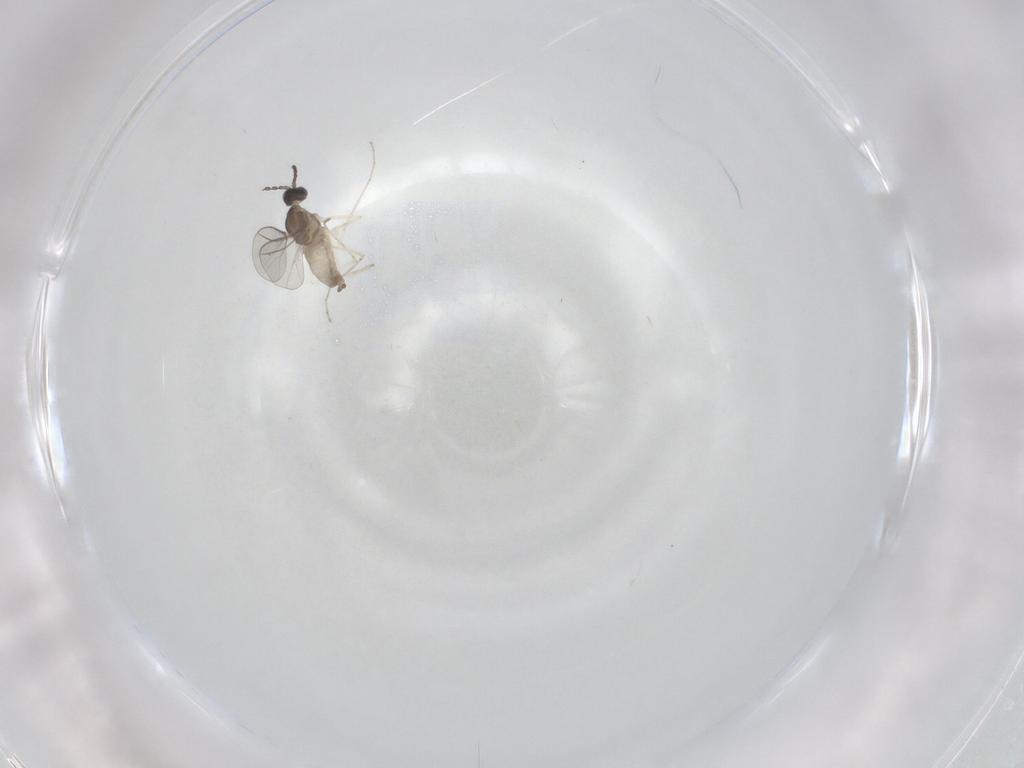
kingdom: Animalia
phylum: Arthropoda
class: Insecta
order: Diptera
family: Cecidomyiidae
